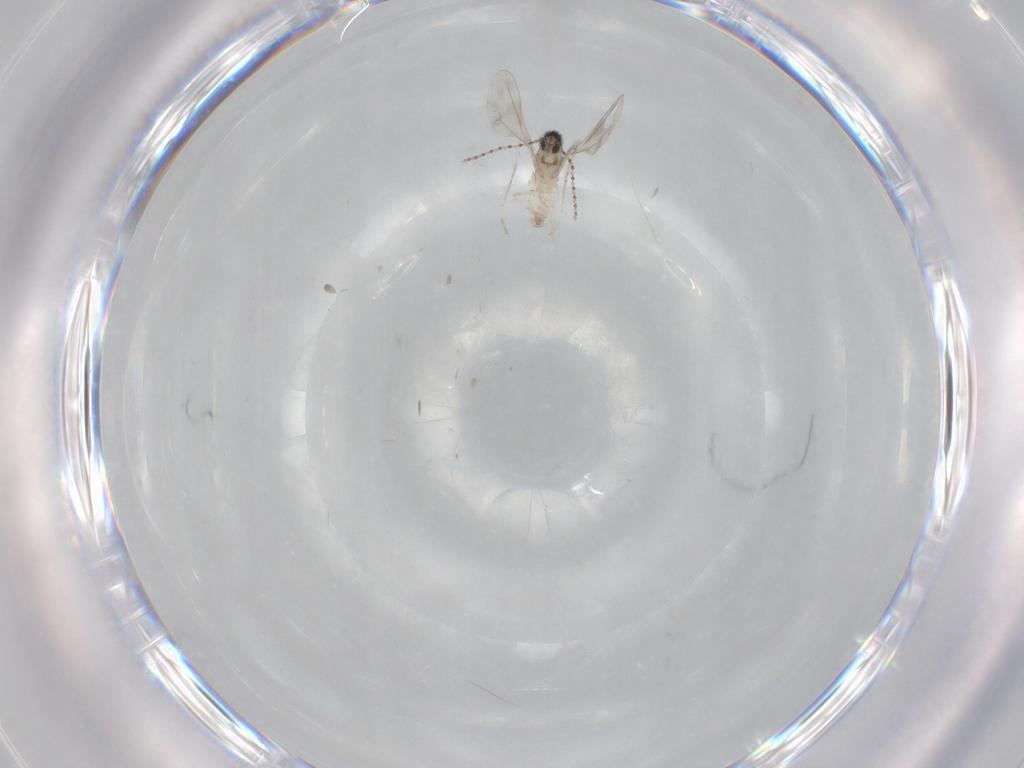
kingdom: Animalia
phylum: Arthropoda
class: Insecta
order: Diptera
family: Cecidomyiidae
